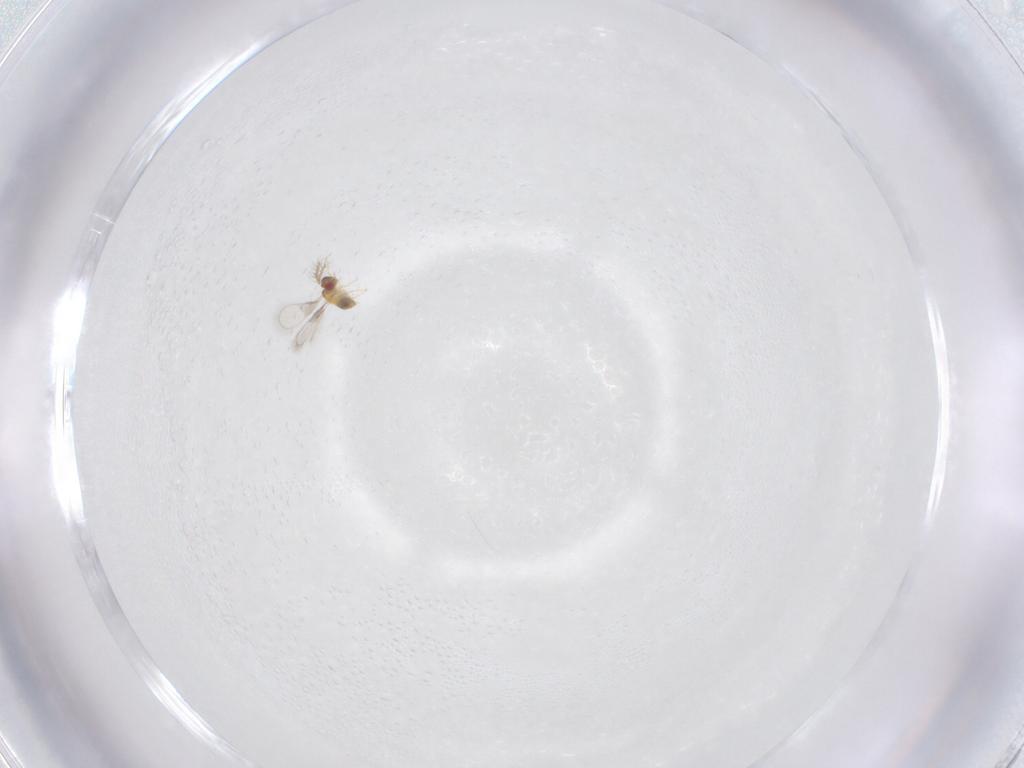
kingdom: Animalia
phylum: Arthropoda
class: Insecta
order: Hymenoptera
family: Trichogrammatidae
